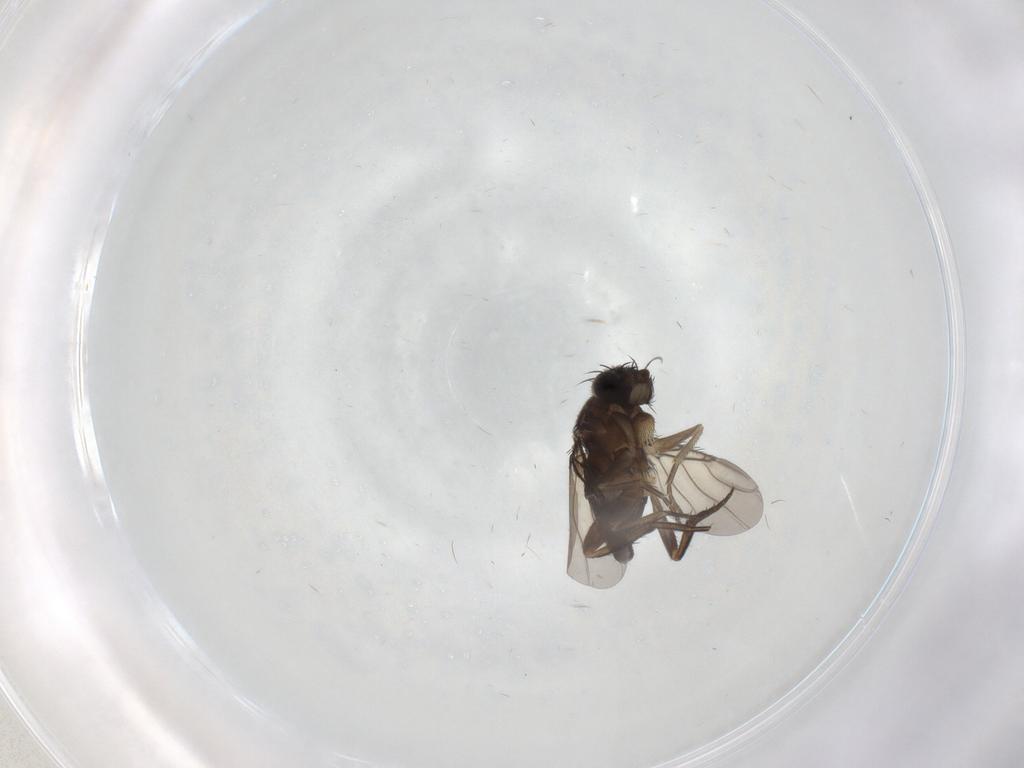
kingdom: Animalia
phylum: Arthropoda
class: Insecta
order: Diptera
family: Phoridae
